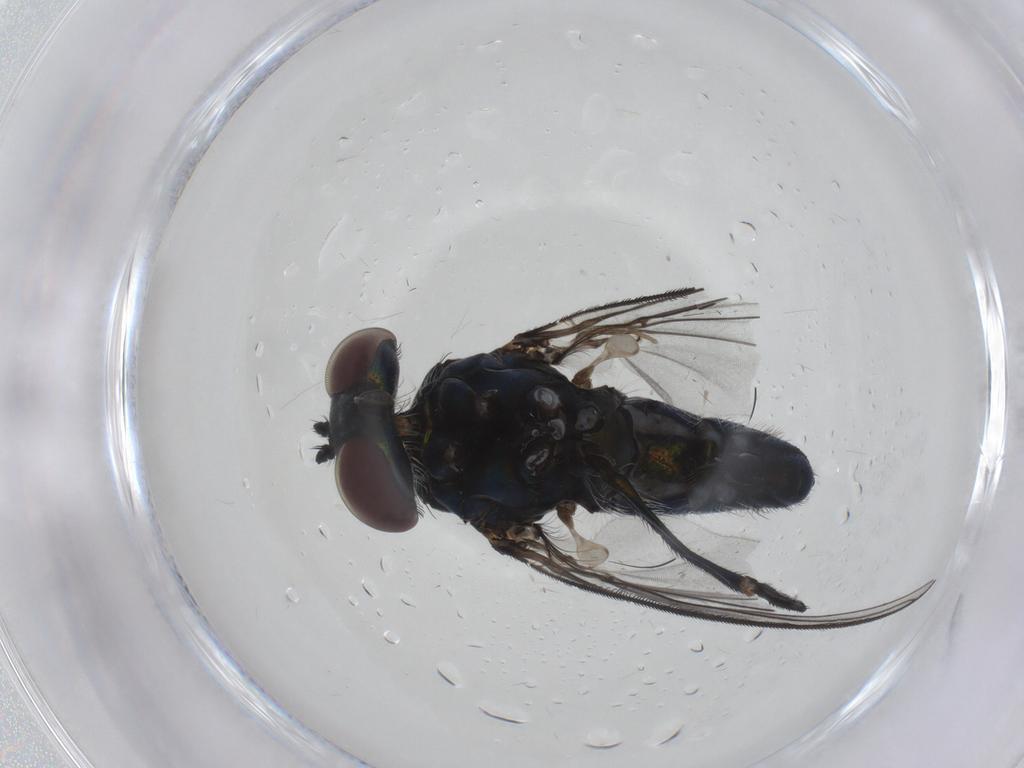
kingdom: Animalia
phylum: Arthropoda
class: Insecta
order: Diptera
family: Dolichopodidae
